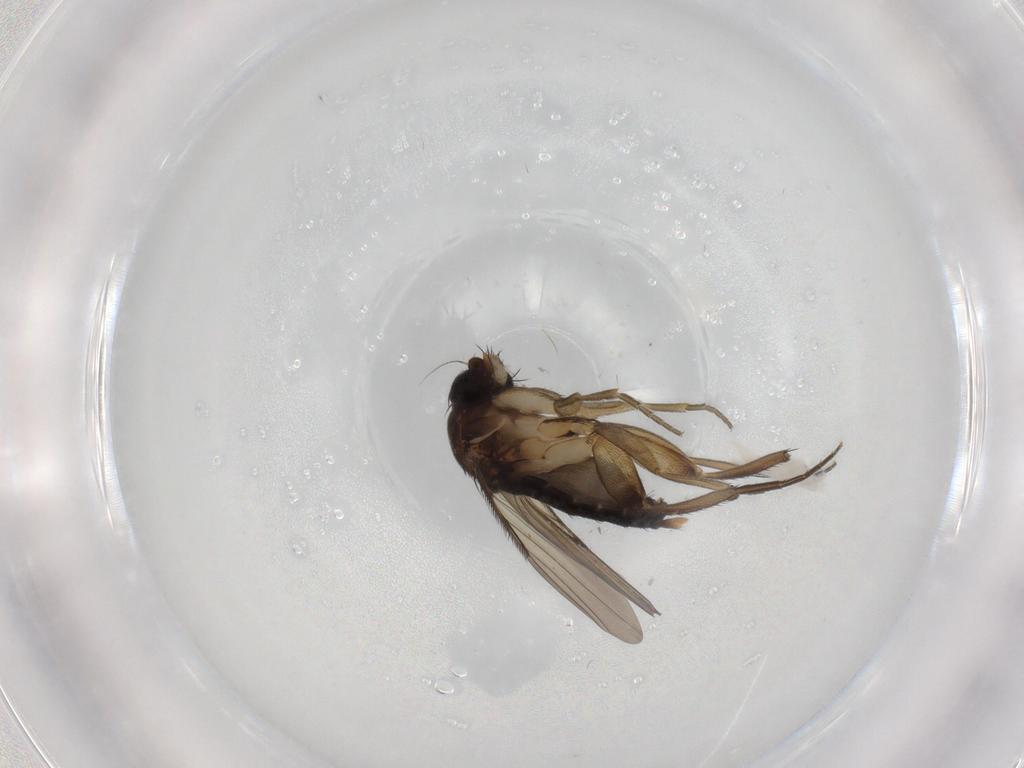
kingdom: Animalia
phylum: Arthropoda
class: Insecta
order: Diptera
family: Phoridae
